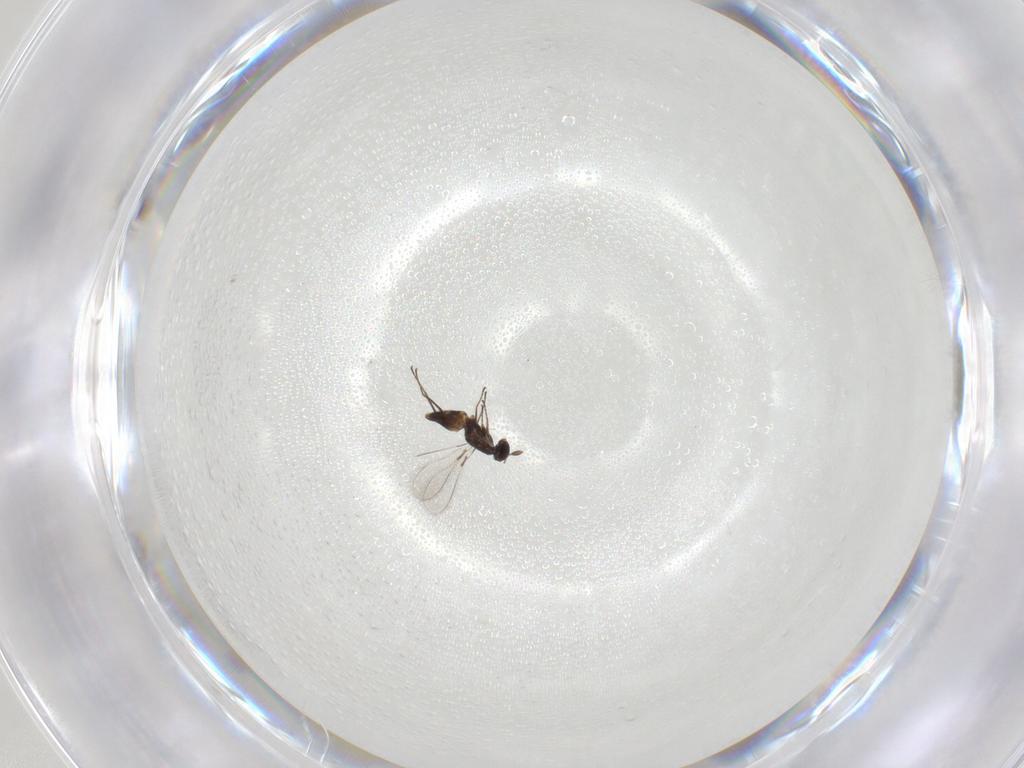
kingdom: Animalia
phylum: Arthropoda
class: Insecta
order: Hymenoptera
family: Mymaridae
